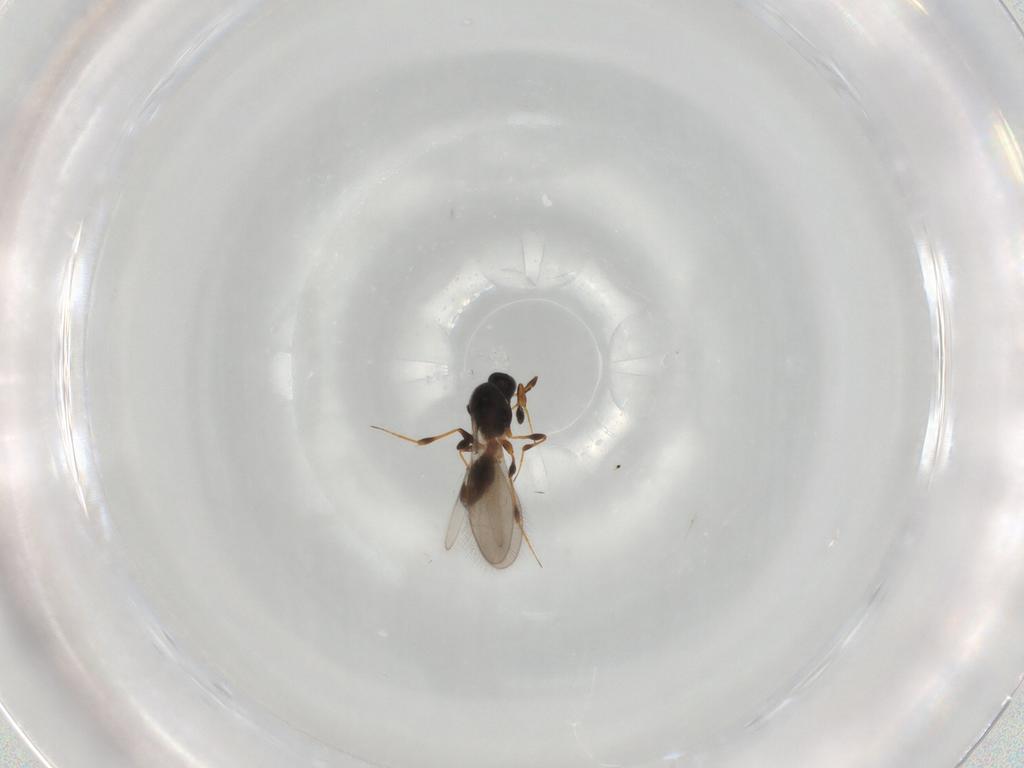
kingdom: Animalia
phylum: Arthropoda
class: Insecta
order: Hymenoptera
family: Platygastridae
